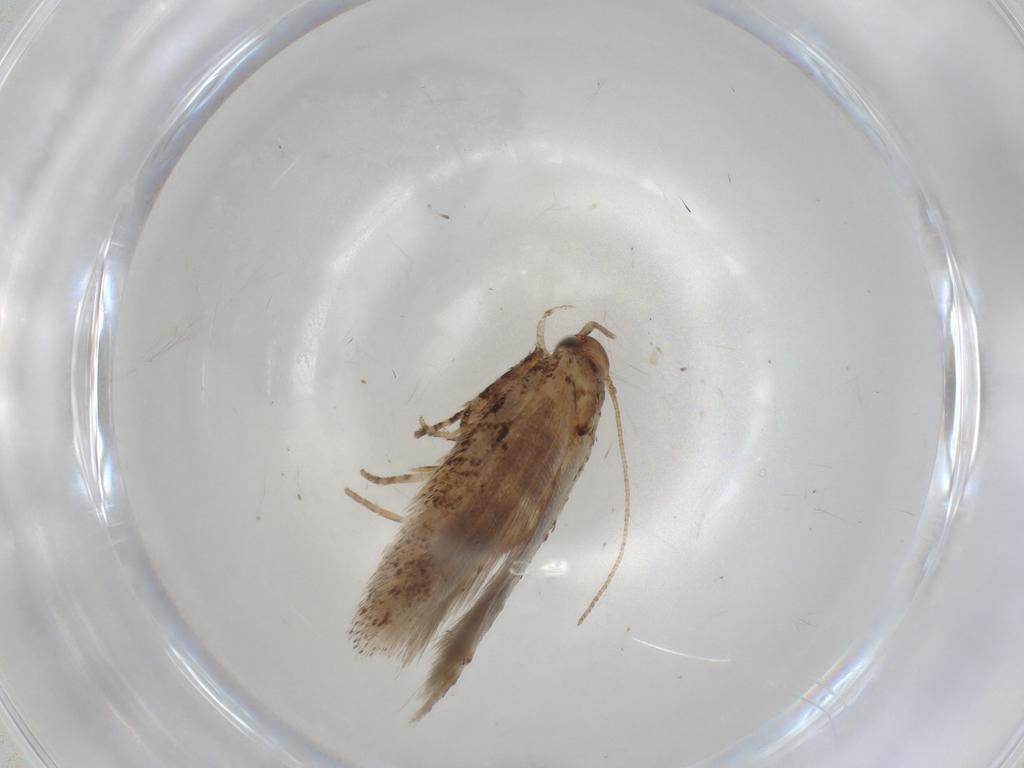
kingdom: Animalia
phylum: Arthropoda
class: Insecta
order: Lepidoptera
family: Gelechiidae
